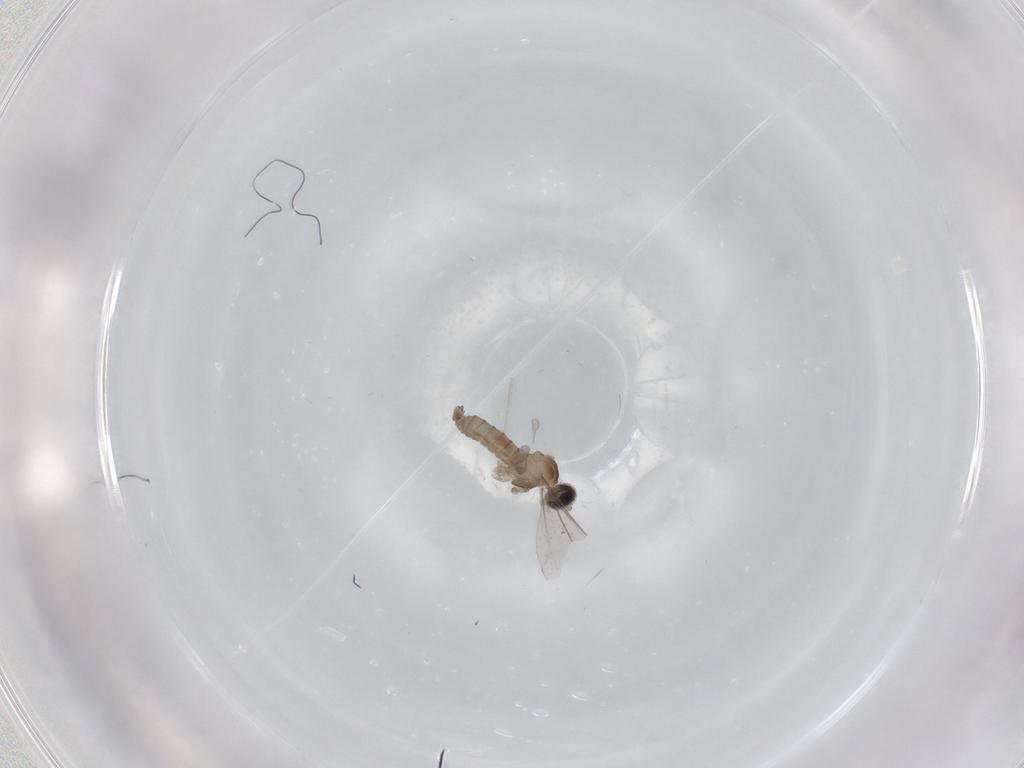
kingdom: Animalia
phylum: Arthropoda
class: Insecta
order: Diptera
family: Cecidomyiidae
